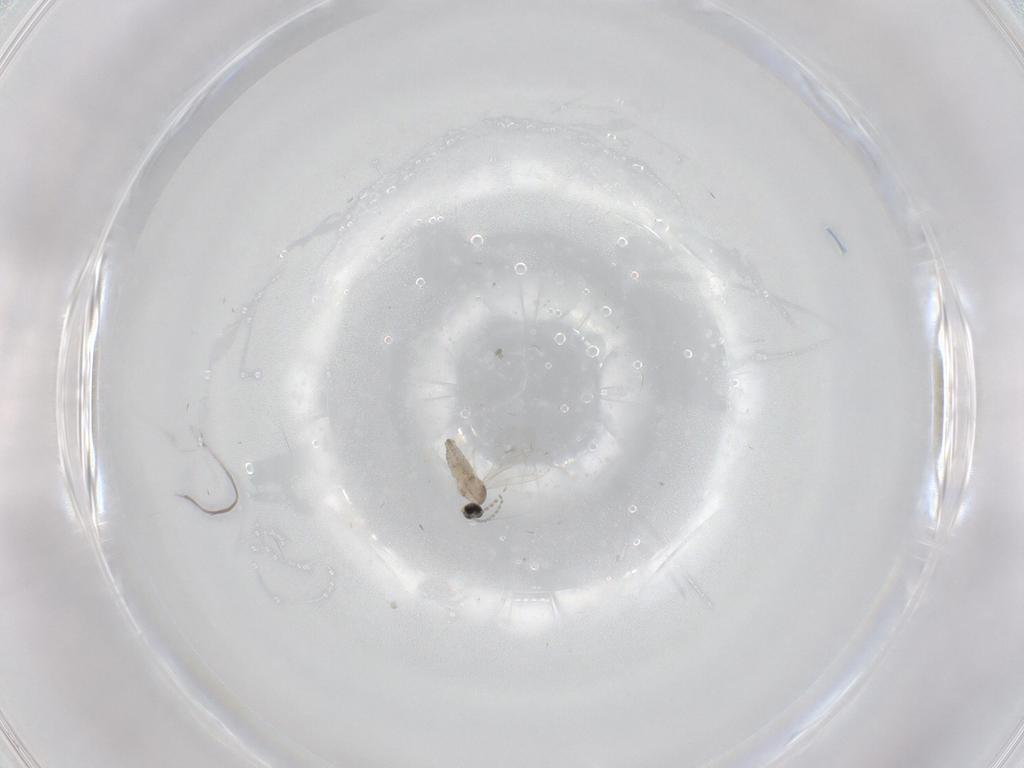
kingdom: Animalia
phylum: Arthropoda
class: Insecta
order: Diptera
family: Cecidomyiidae
